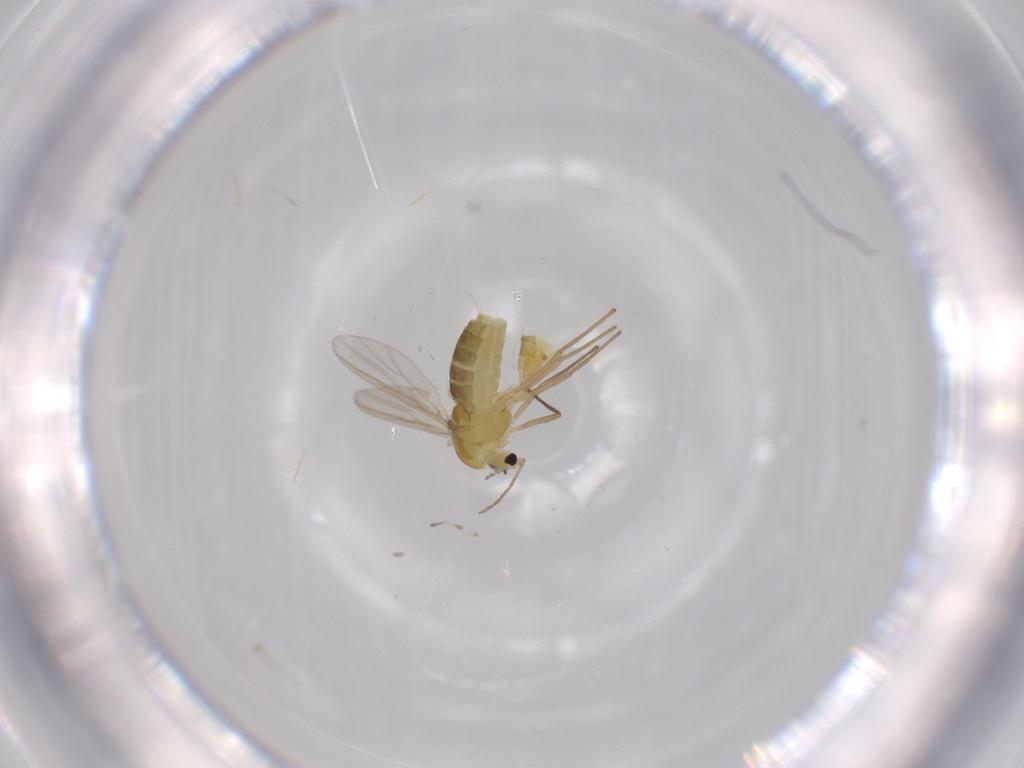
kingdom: Animalia
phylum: Arthropoda
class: Insecta
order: Diptera
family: Chironomidae
